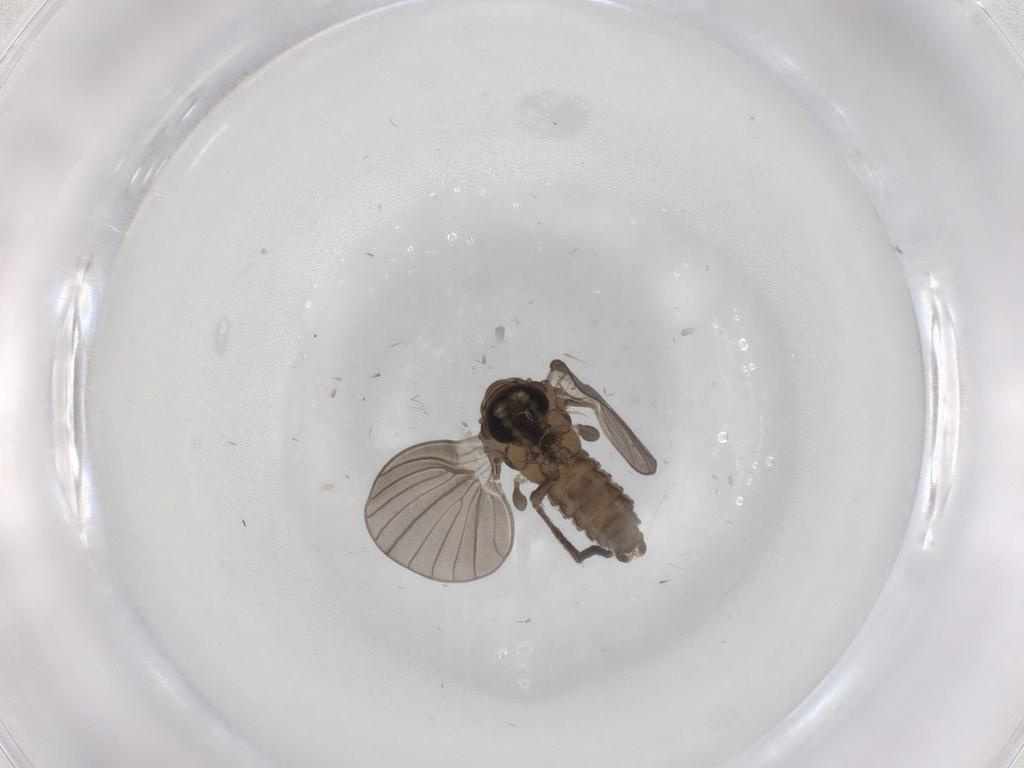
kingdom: Animalia
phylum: Arthropoda
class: Insecta
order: Diptera
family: Psychodidae
